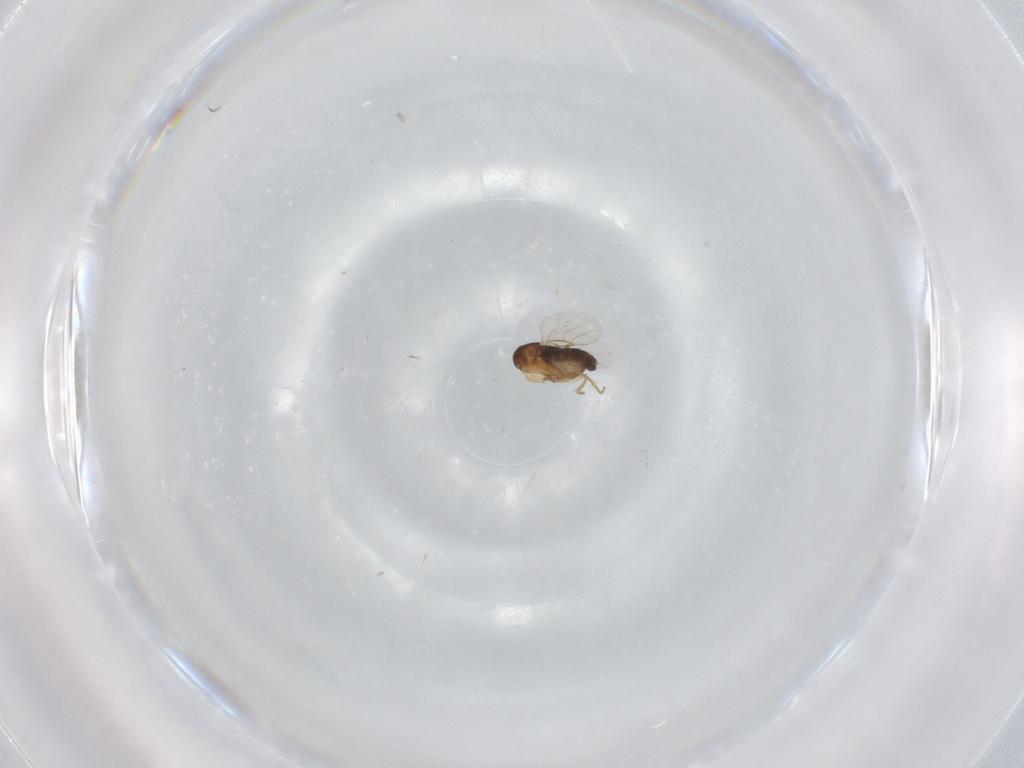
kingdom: Animalia
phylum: Arthropoda
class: Insecta
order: Diptera
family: Phoridae
